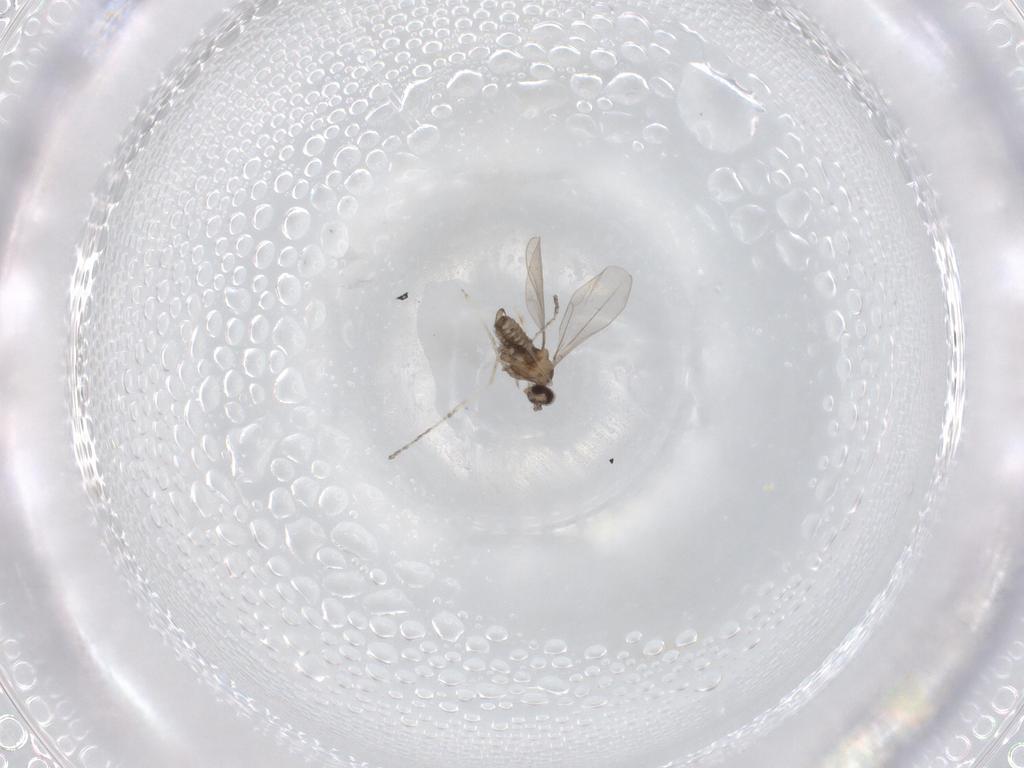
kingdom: Animalia
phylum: Arthropoda
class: Insecta
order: Diptera
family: Cecidomyiidae
